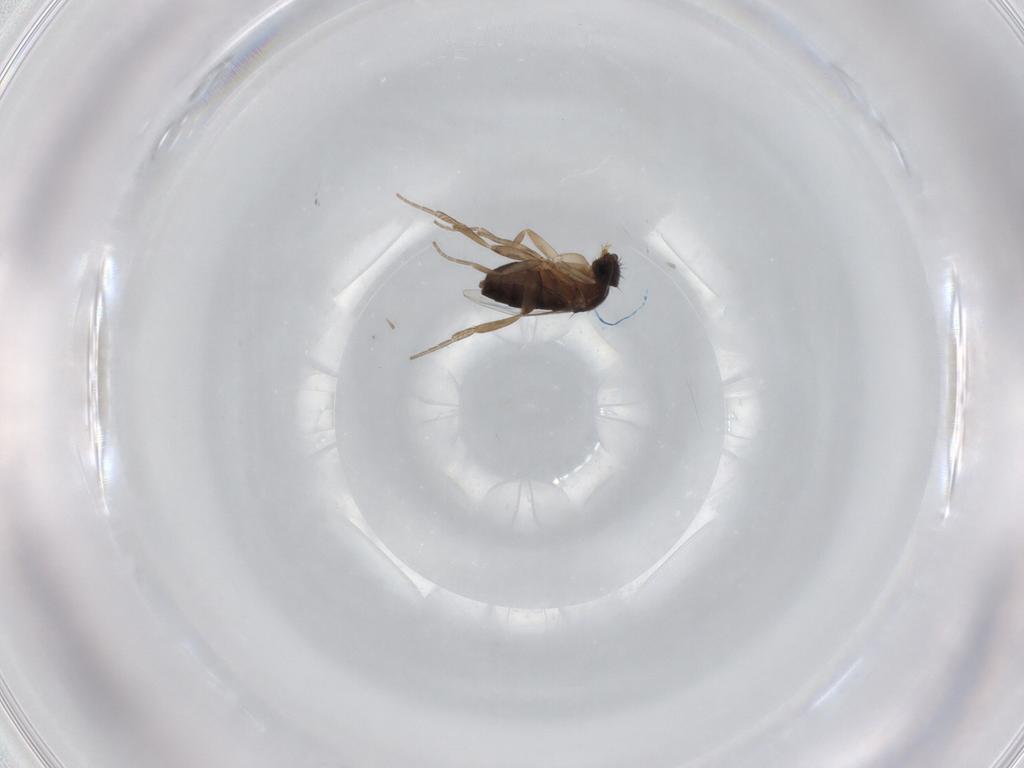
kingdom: Animalia
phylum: Arthropoda
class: Insecta
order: Diptera
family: Phoridae
